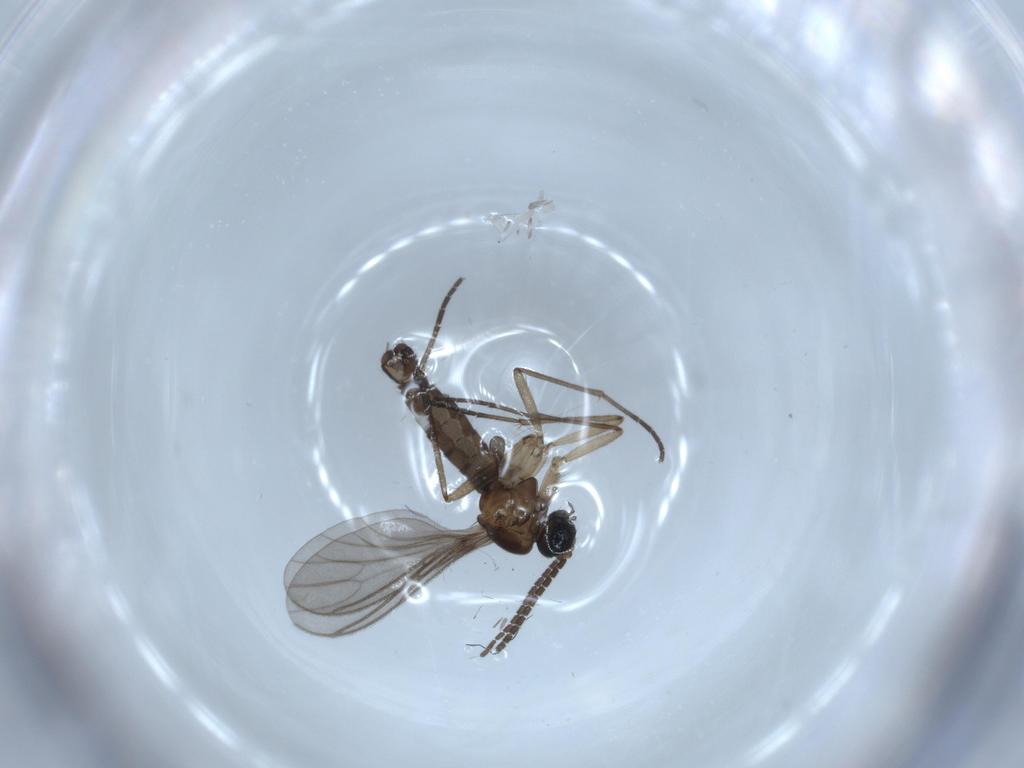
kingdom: Animalia
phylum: Arthropoda
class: Insecta
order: Diptera
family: Sciaridae
